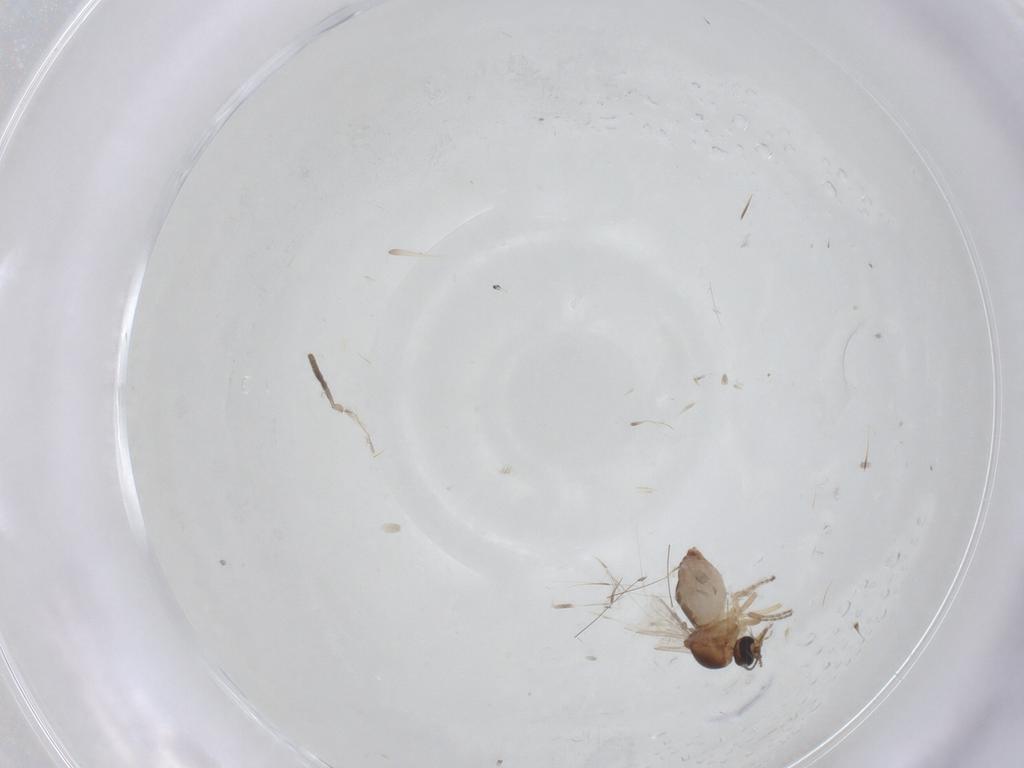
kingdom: Animalia
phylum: Arthropoda
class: Insecta
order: Diptera
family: Ceratopogonidae
